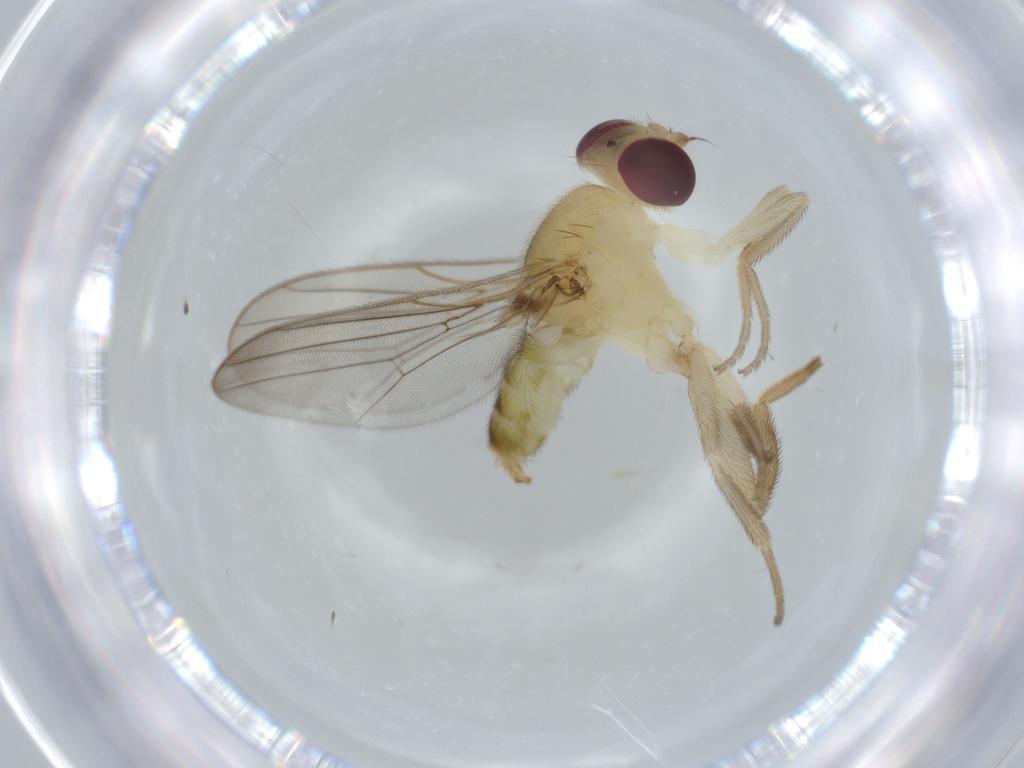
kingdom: Animalia
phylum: Arthropoda
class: Insecta
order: Diptera
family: Chloropidae
